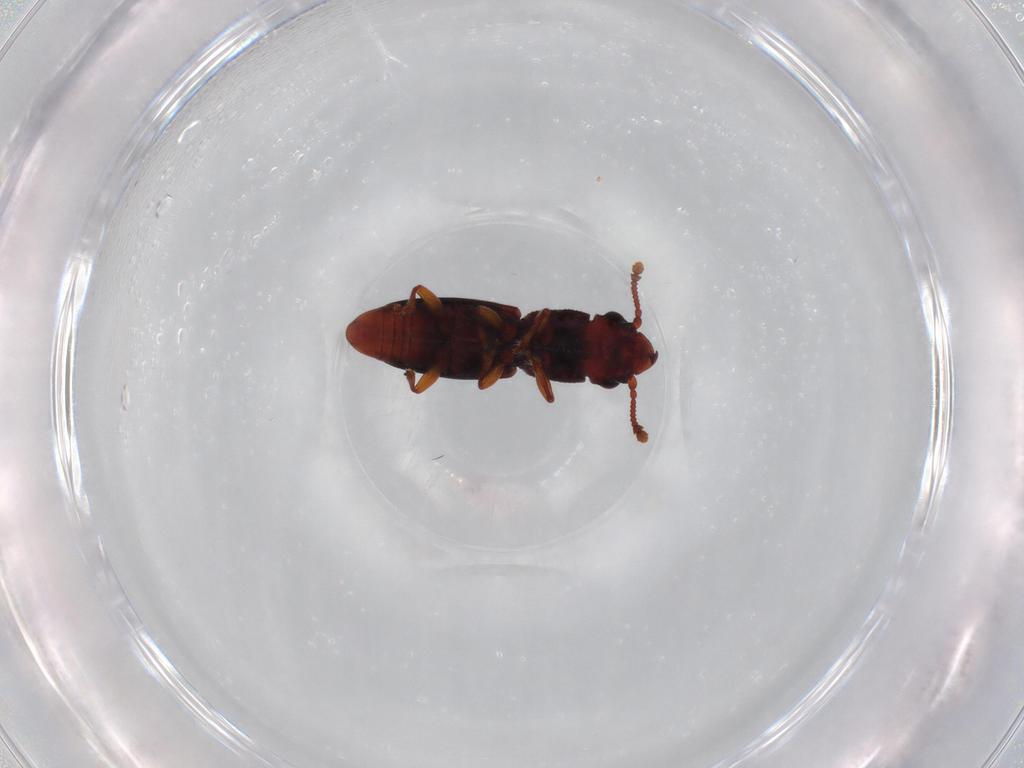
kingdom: Animalia
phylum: Arthropoda
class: Insecta
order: Coleoptera
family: Monotomidae
